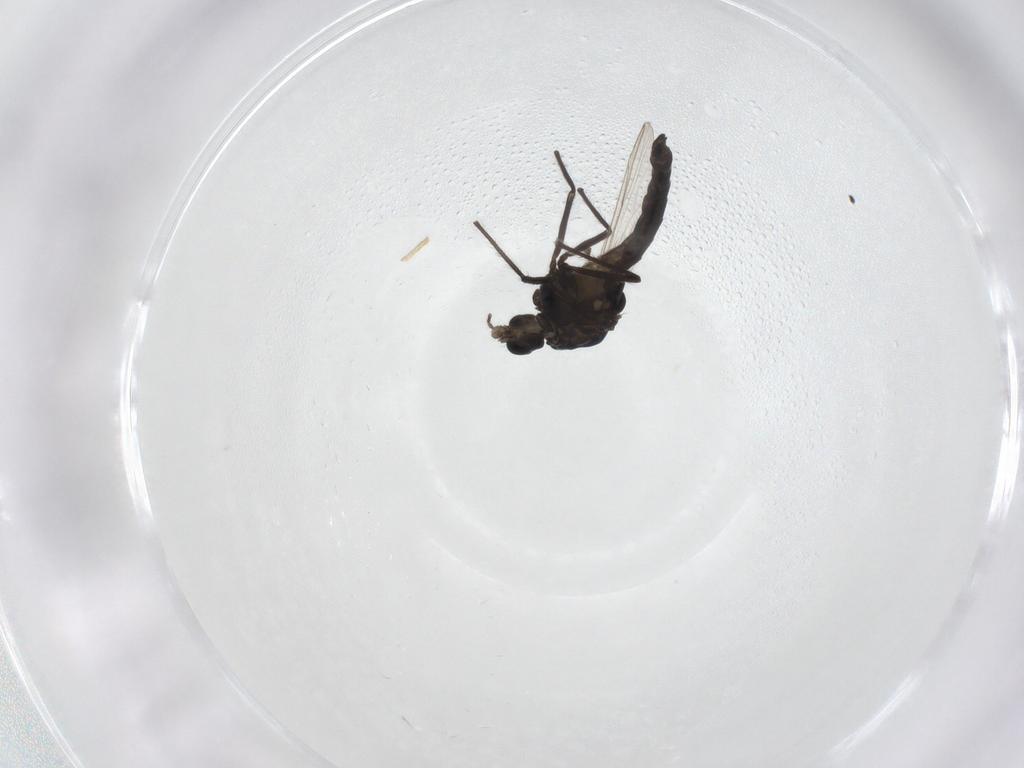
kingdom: Animalia
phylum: Arthropoda
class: Insecta
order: Diptera
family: Chironomidae
